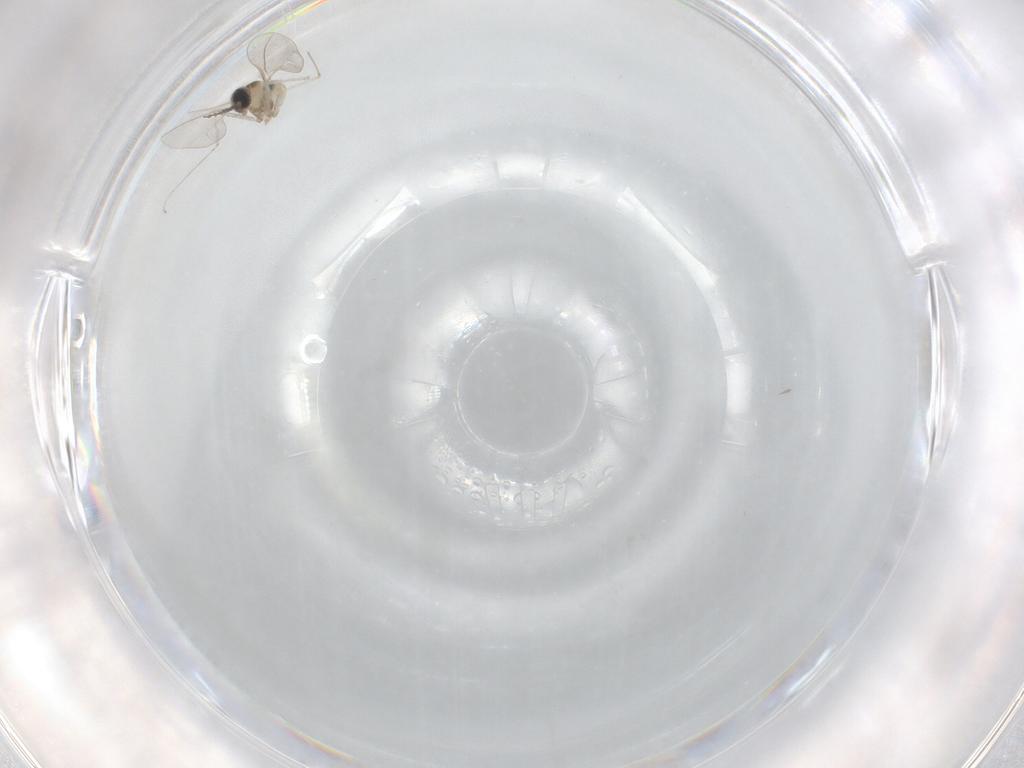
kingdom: Animalia
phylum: Arthropoda
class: Insecta
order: Diptera
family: Cecidomyiidae
